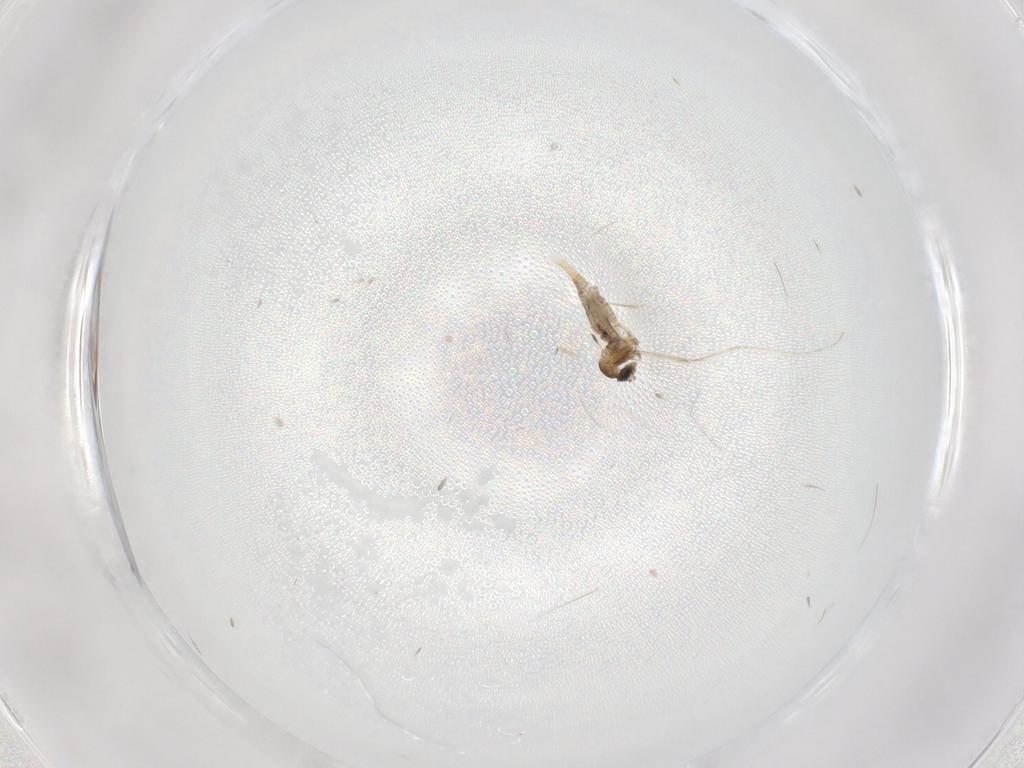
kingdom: Animalia
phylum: Arthropoda
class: Insecta
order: Diptera
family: Cecidomyiidae
